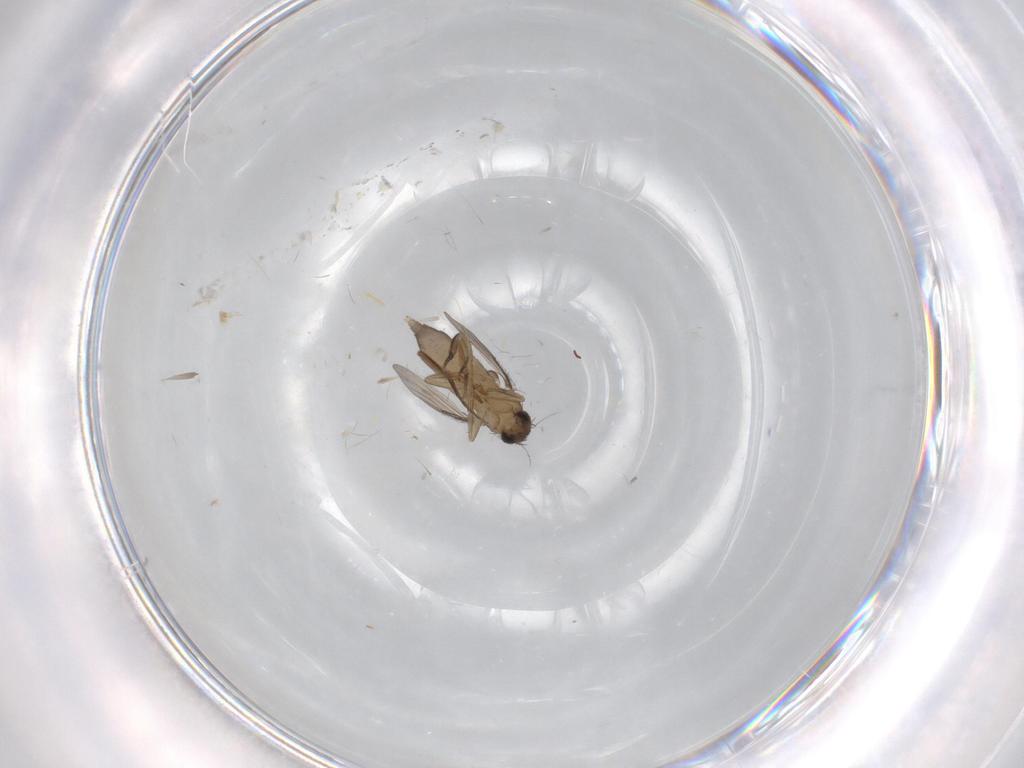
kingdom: Animalia
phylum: Arthropoda
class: Insecta
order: Diptera
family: Phoridae
